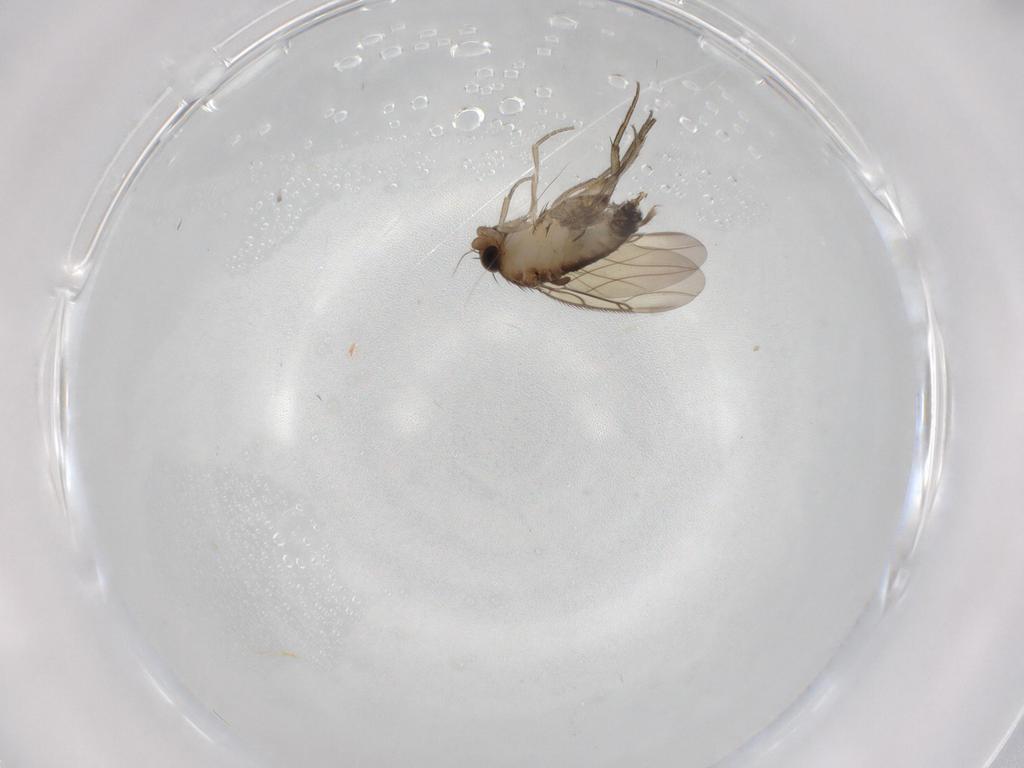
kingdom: Animalia
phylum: Arthropoda
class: Insecta
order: Diptera
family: Phoridae
